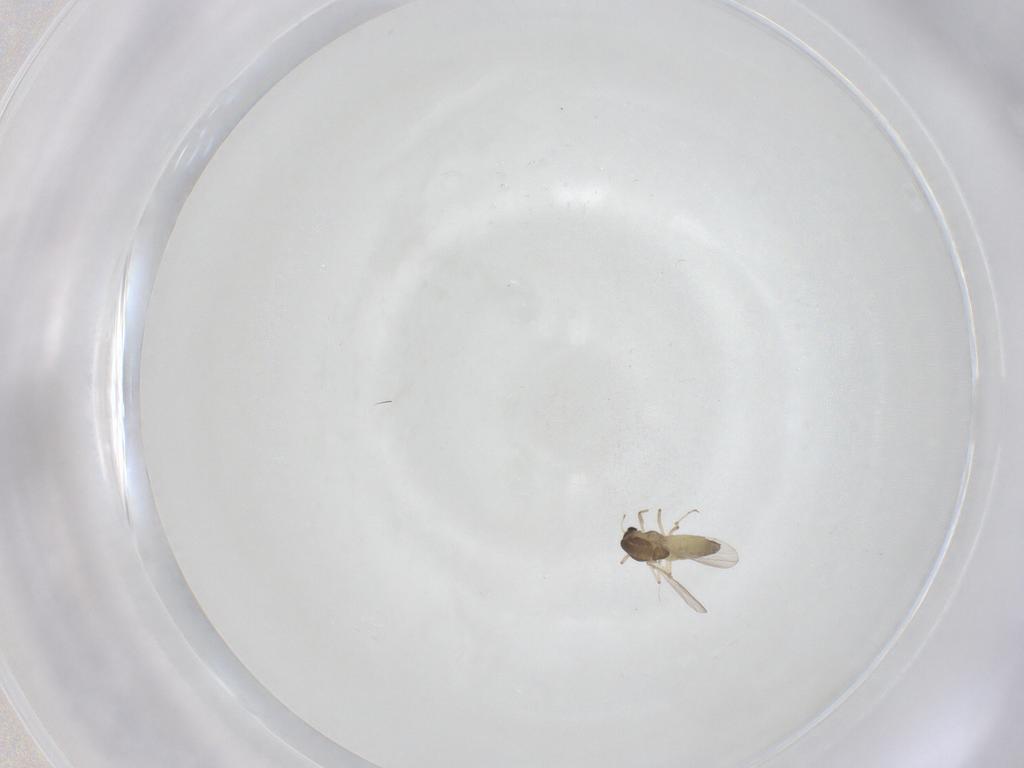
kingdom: Animalia
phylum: Arthropoda
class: Insecta
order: Diptera
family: Chironomidae
